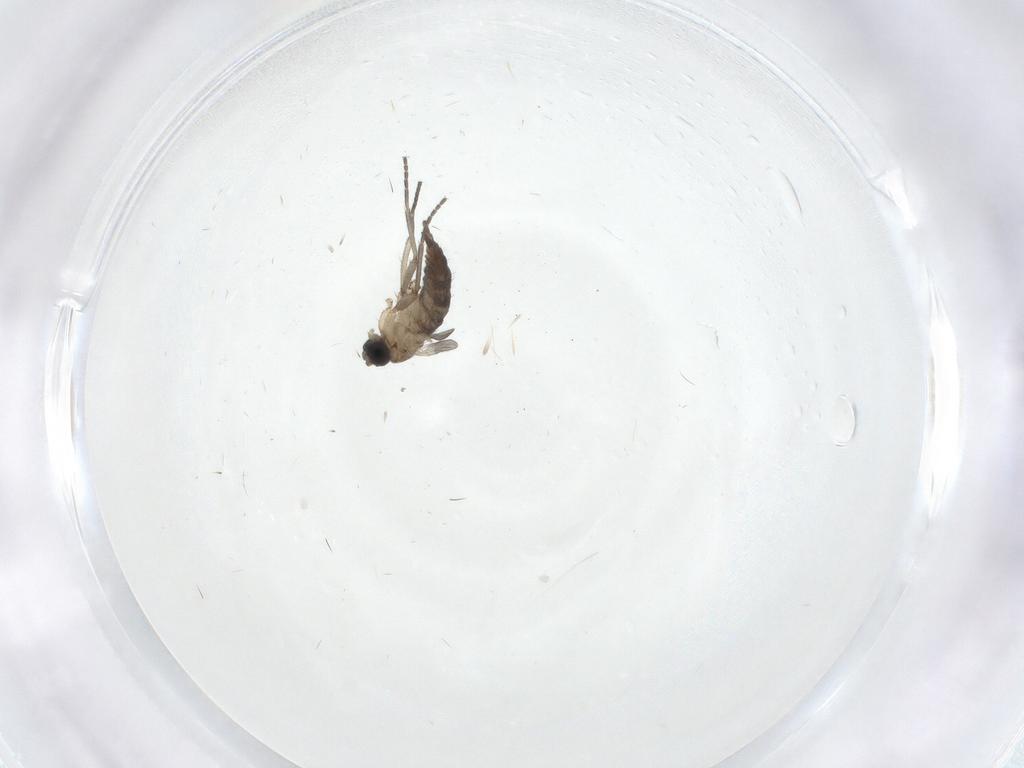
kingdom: Animalia
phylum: Arthropoda
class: Insecta
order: Diptera
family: Sciaridae
